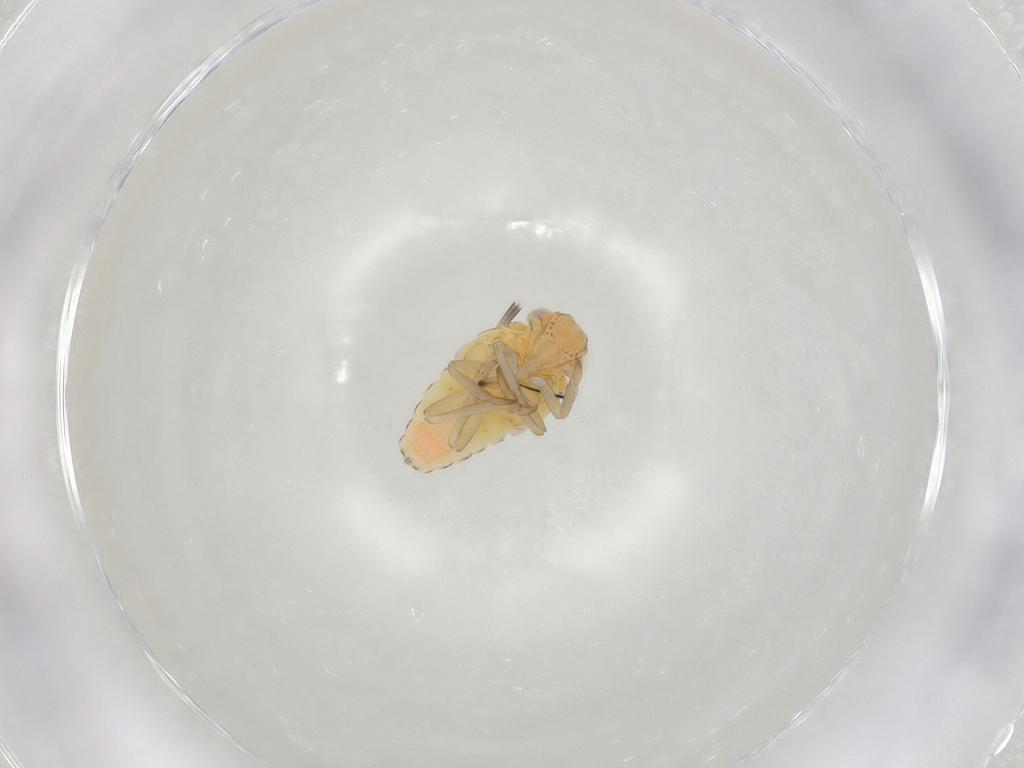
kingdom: Animalia
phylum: Arthropoda
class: Insecta
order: Hemiptera
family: Tropiduchidae
